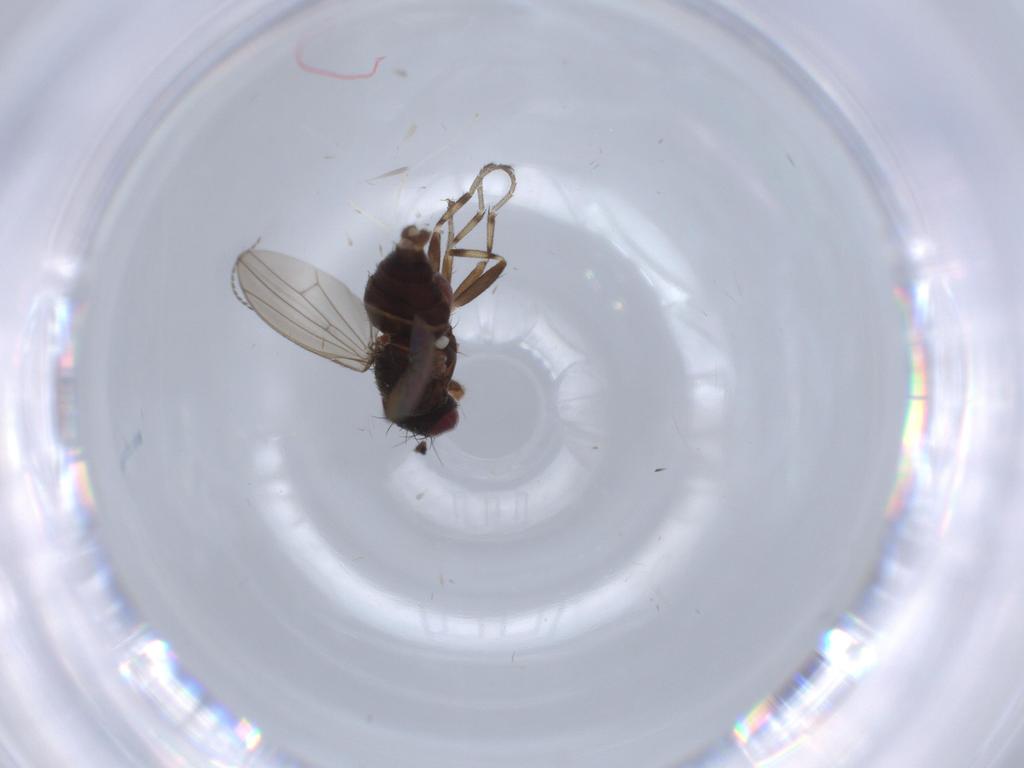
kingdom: Animalia
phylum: Arthropoda
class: Insecta
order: Diptera
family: Heleomyzidae
